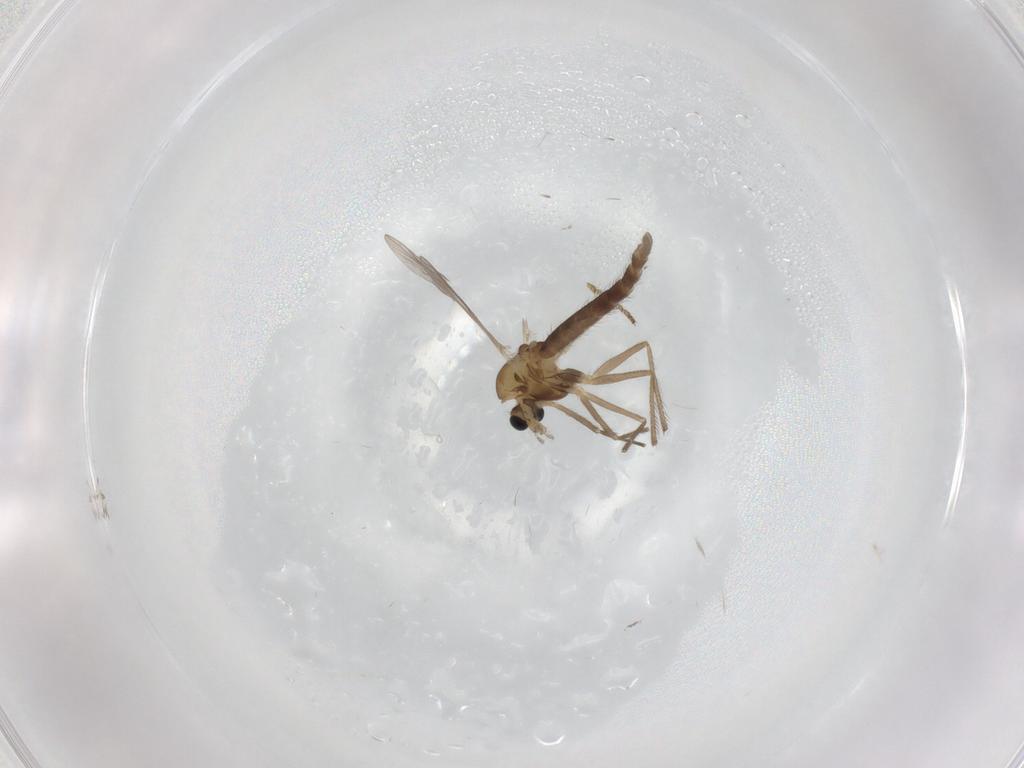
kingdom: Animalia
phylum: Arthropoda
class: Insecta
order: Diptera
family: Chironomidae
